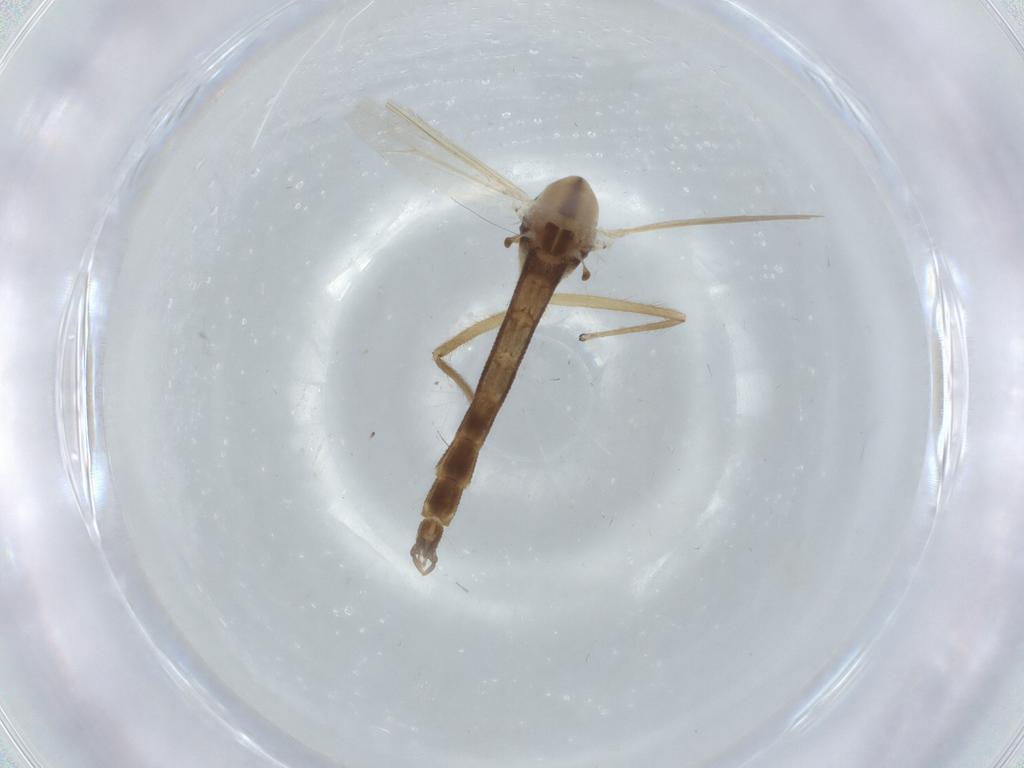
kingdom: Animalia
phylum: Arthropoda
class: Insecta
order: Diptera
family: Chironomidae
